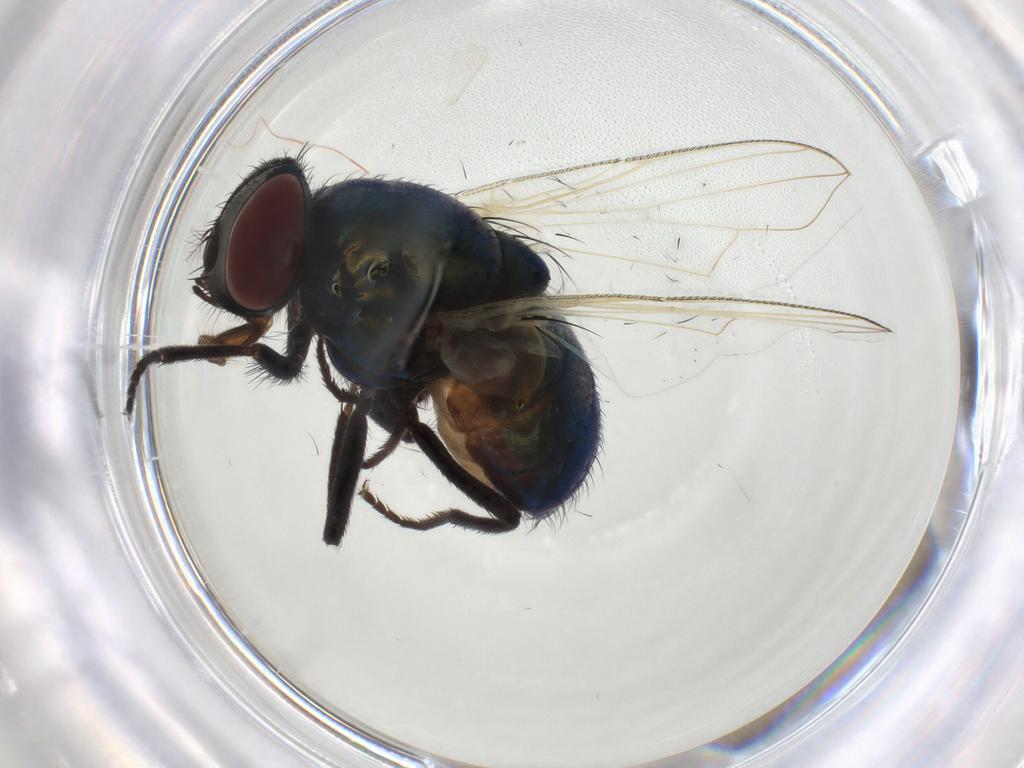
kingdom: Animalia
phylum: Arthropoda
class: Insecta
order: Diptera
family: Muscidae
